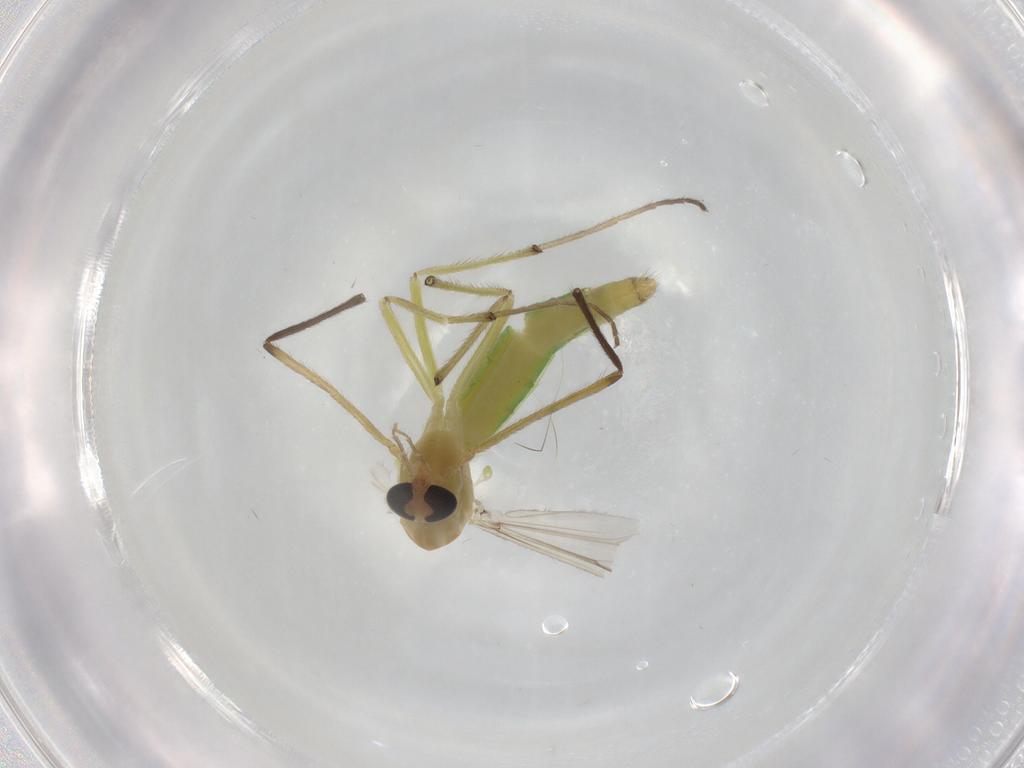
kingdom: Animalia
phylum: Arthropoda
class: Insecta
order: Diptera
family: Chironomidae
